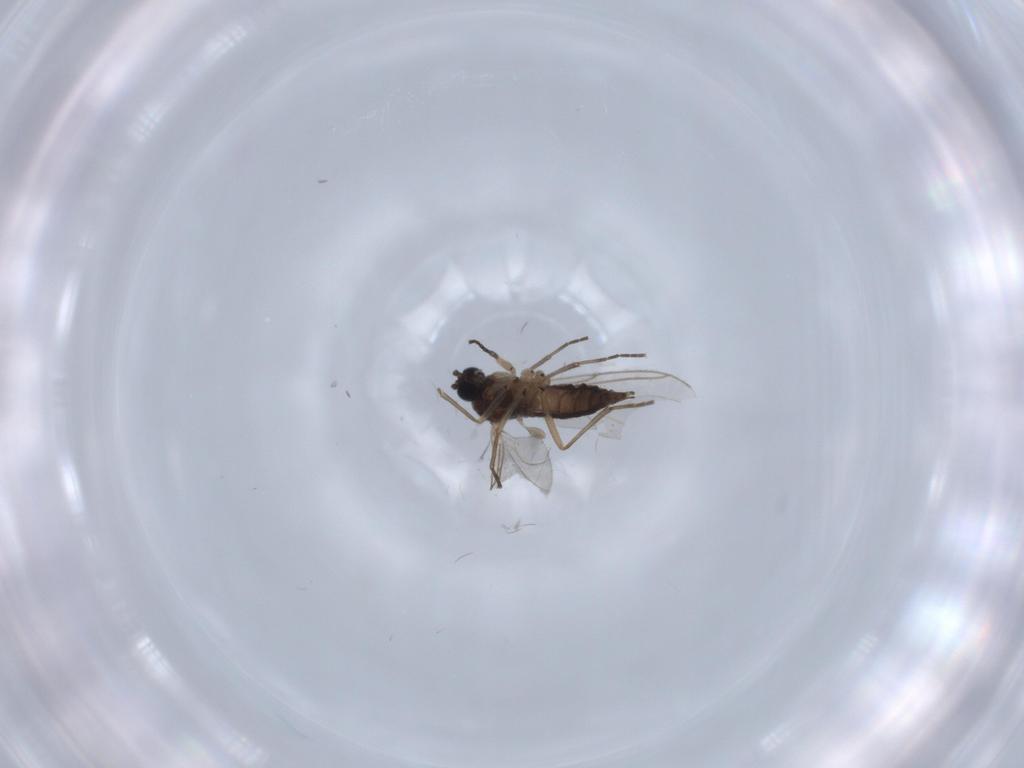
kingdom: Animalia
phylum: Arthropoda
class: Insecta
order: Diptera
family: Sciaridae
